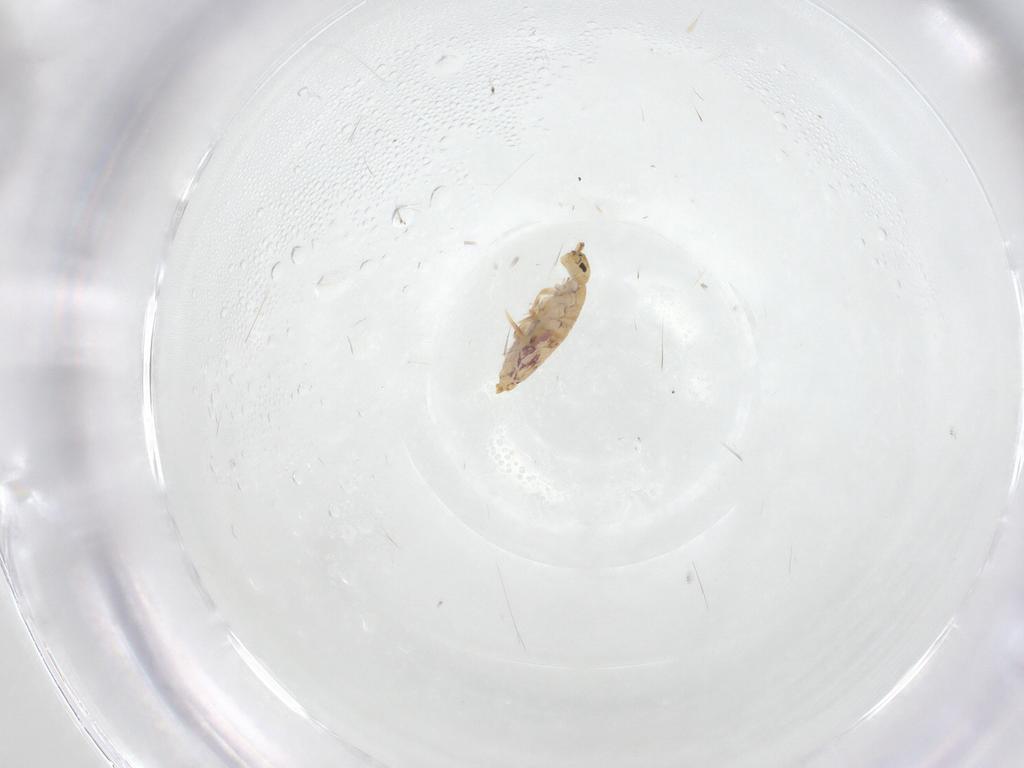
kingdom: Animalia
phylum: Arthropoda
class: Collembola
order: Entomobryomorpha
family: Entomobryidae
